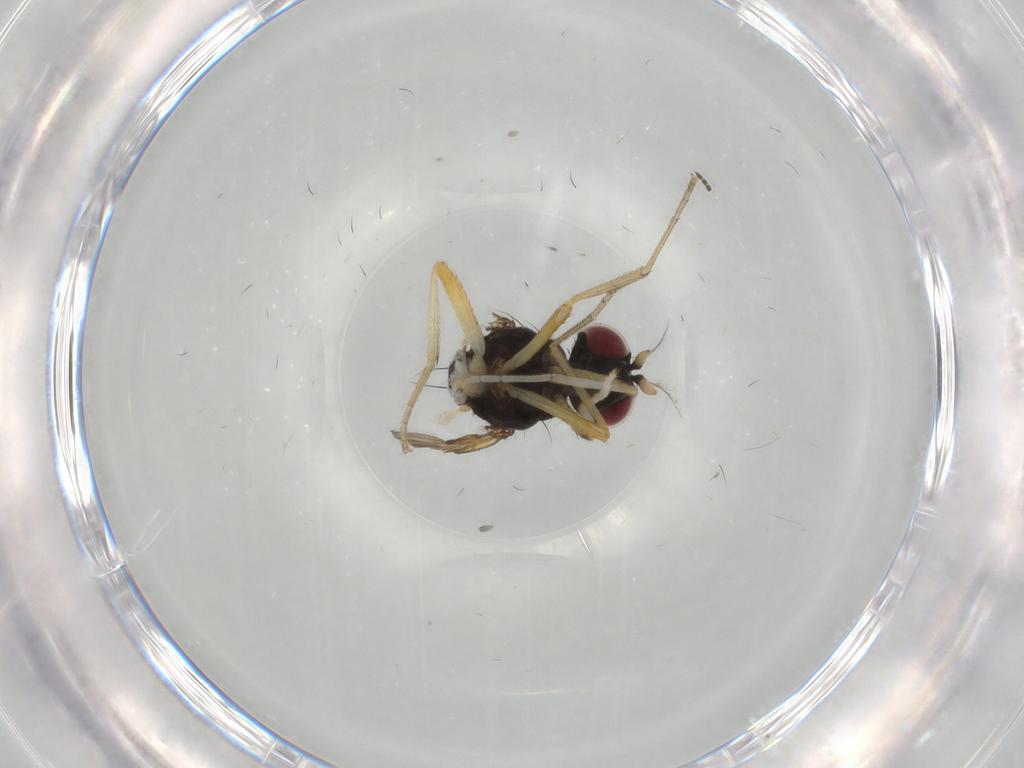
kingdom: Animalia
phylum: Arthropoda
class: Insecta
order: Diptera
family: Lauxaniidae
